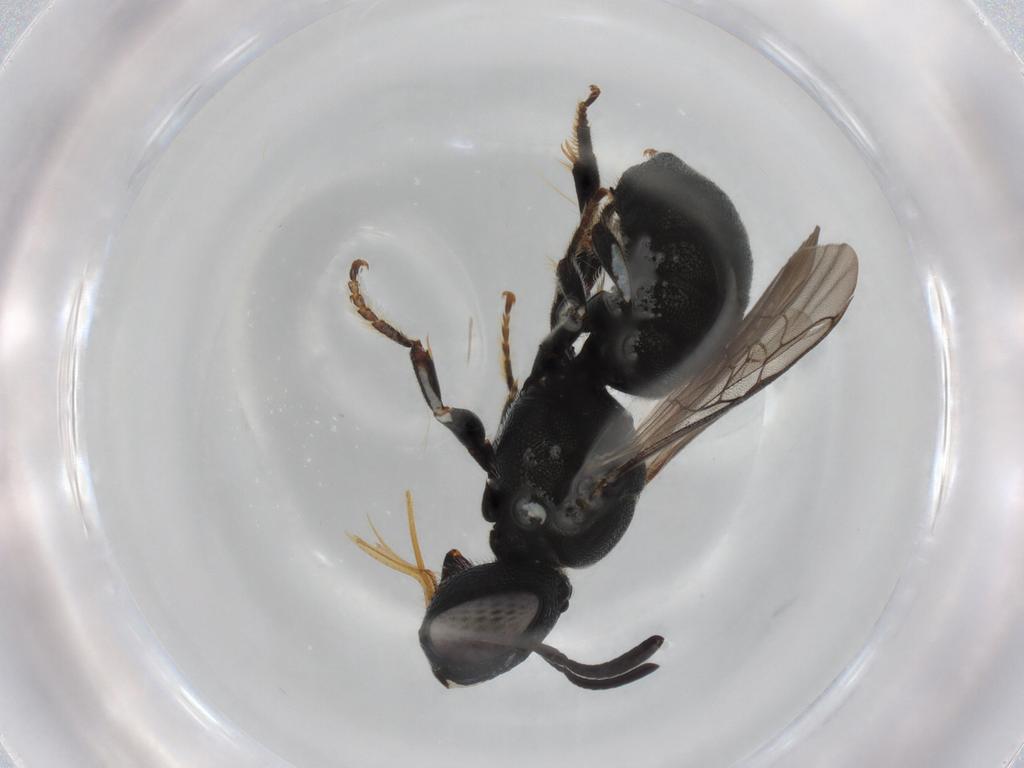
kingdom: Animalia
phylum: Arthropoda
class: Insecta
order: Hymenoptera
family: Apidae
